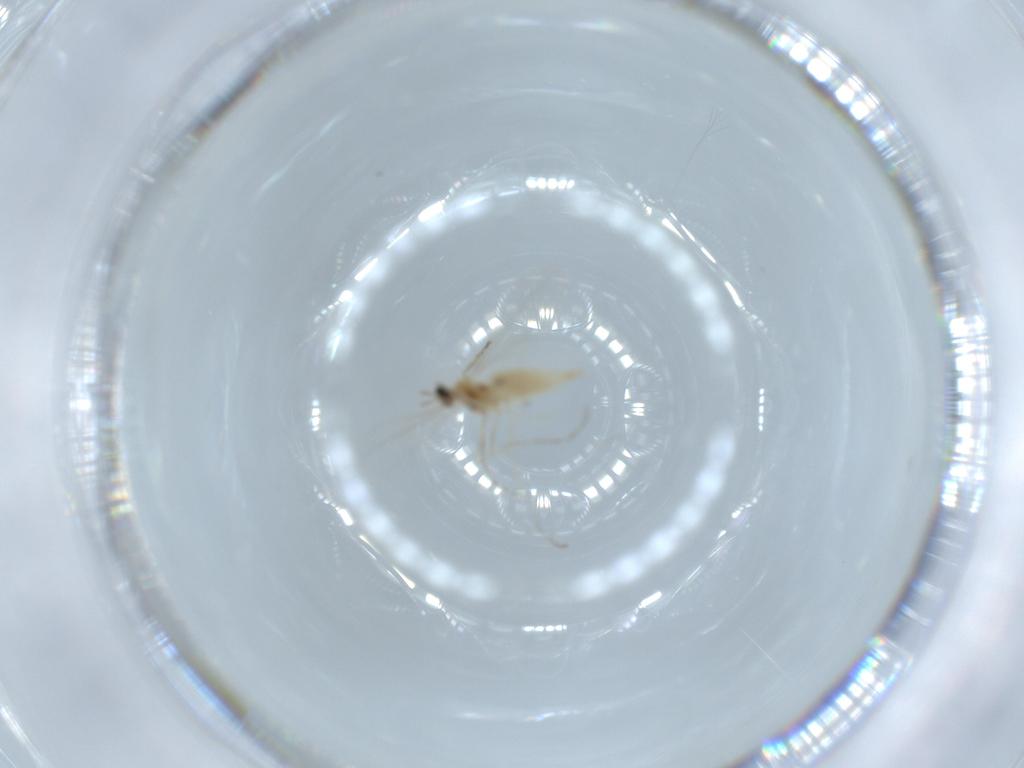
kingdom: Animalia
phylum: Arthropoda
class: Insecta
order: Diptera
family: Cecidomyiidae
